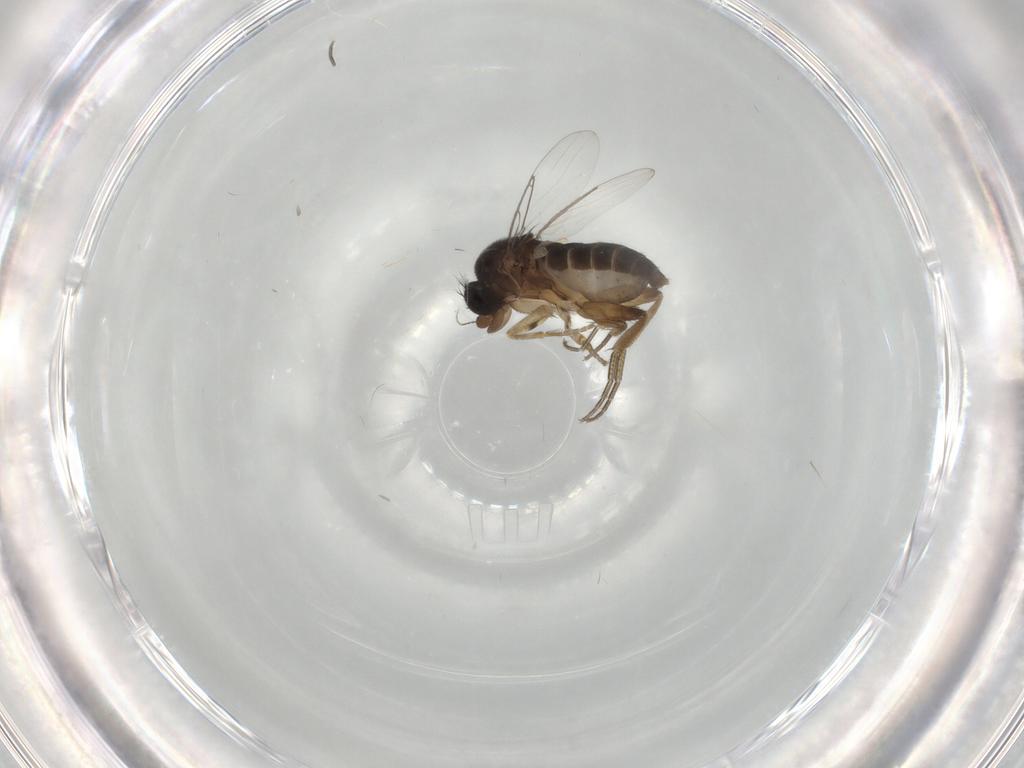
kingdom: Animalia
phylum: Arthropoda
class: Insecta
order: Diptera
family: Phoridae
